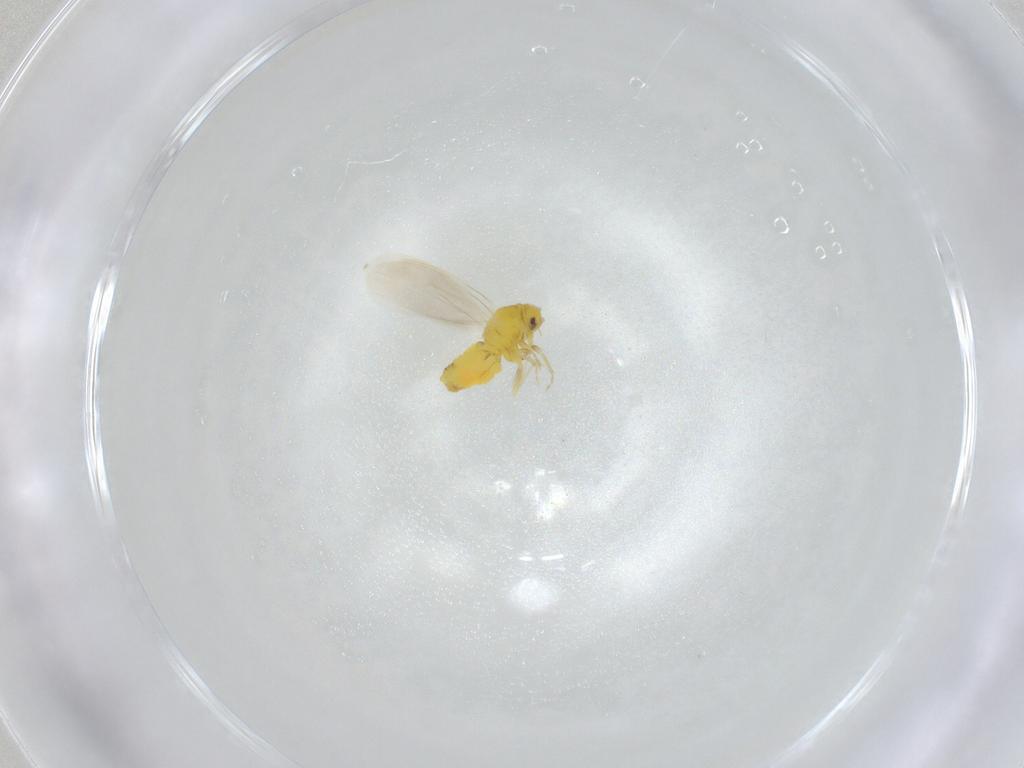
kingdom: Animalia
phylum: Arthropoda
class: Insecta
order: Hemiptera
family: Aleyrodidae
